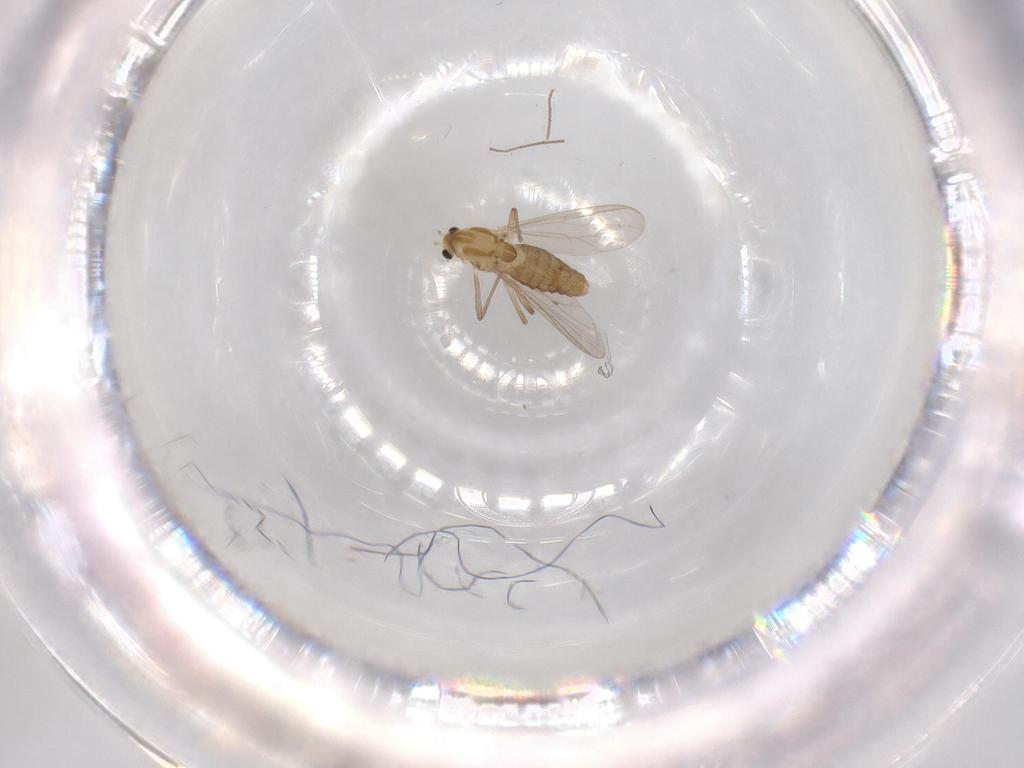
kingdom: Animalia
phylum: Arthropoda
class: Insecta
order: Diptera
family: Chironomidae
